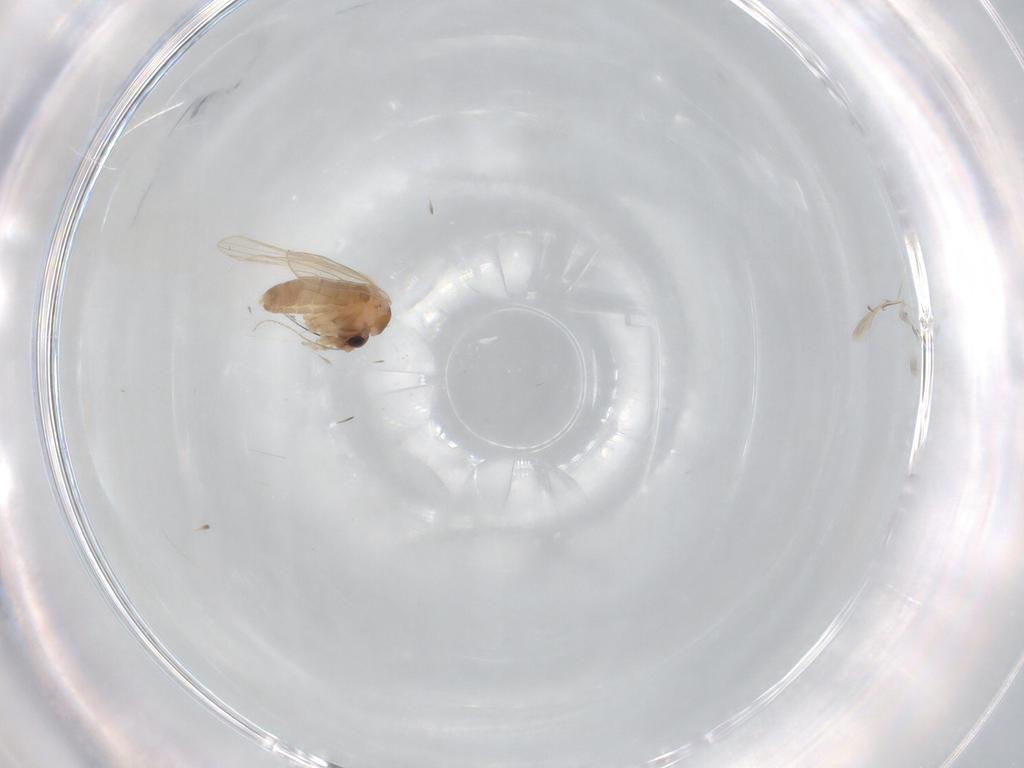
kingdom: Animalia
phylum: Arthropoda
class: Insecta
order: Diptera
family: Psychodidae
